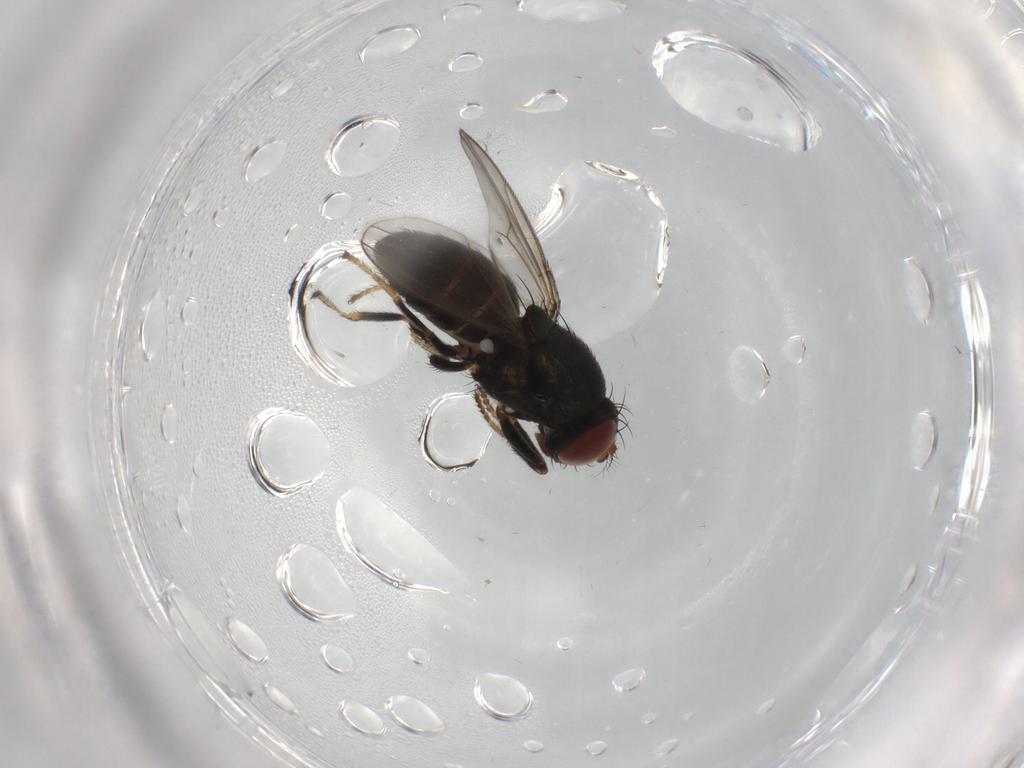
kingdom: Animalia
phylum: Arthropoda
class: Insecta
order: Diptera
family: Ephydridae
